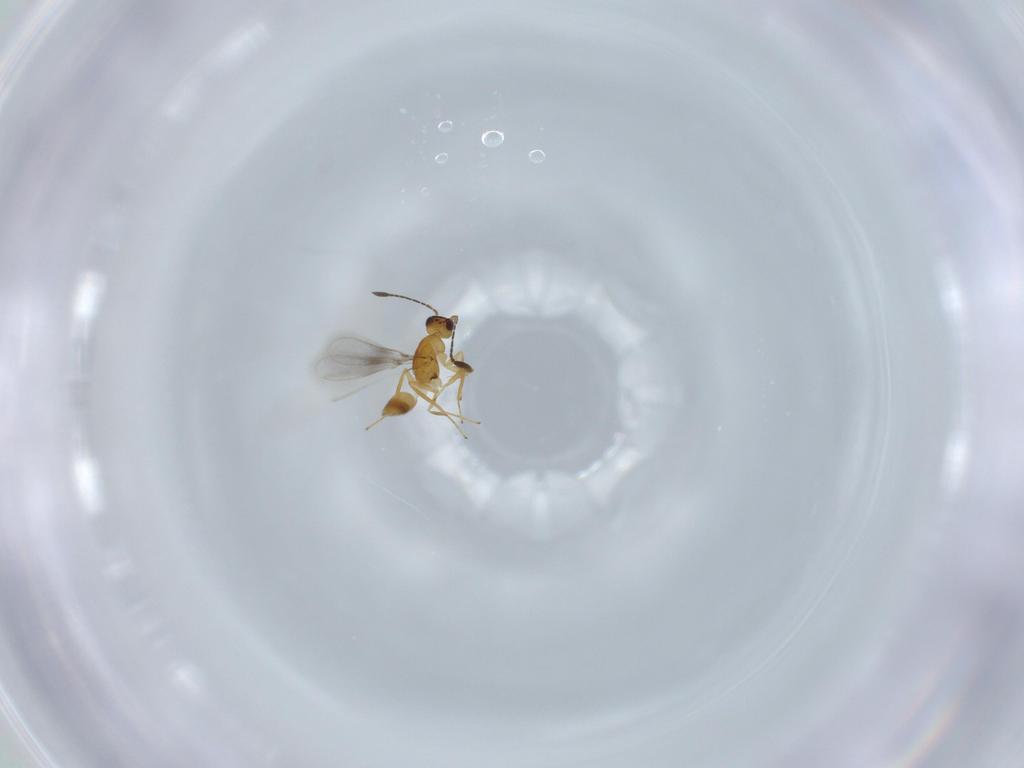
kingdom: Animalia
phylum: Arthropoda
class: Insecta
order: Hymenoptera
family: Mymaridae
